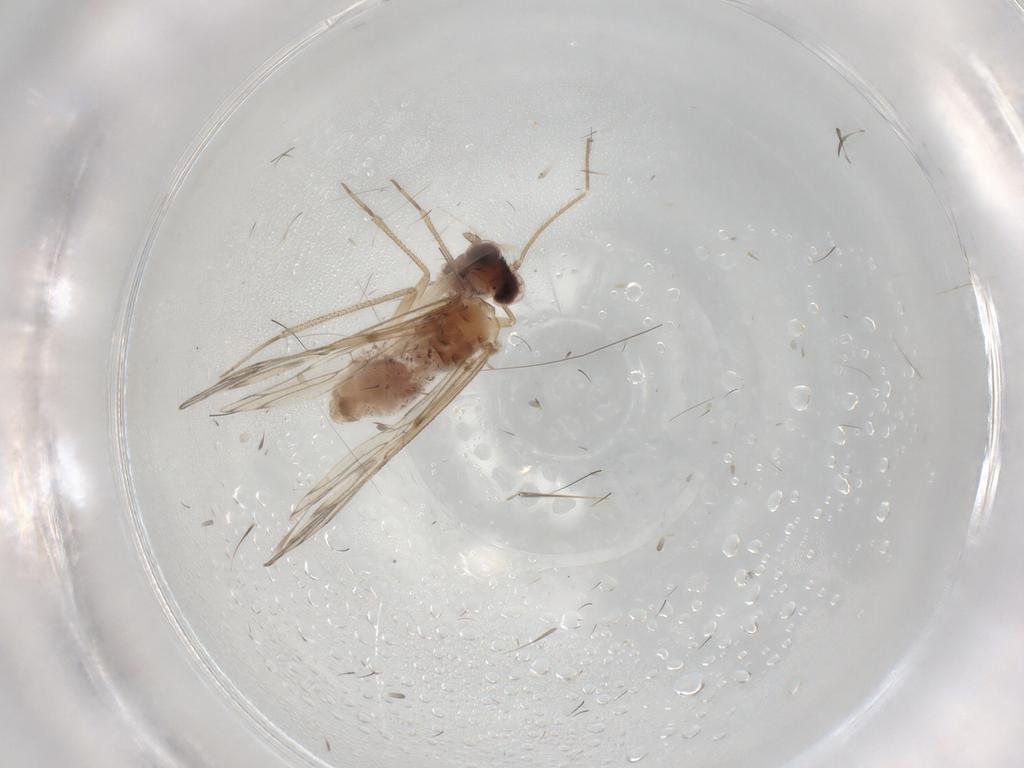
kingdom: Animalia
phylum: Arthropoda
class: Insecta
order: Psocodea
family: Epipsocidae
